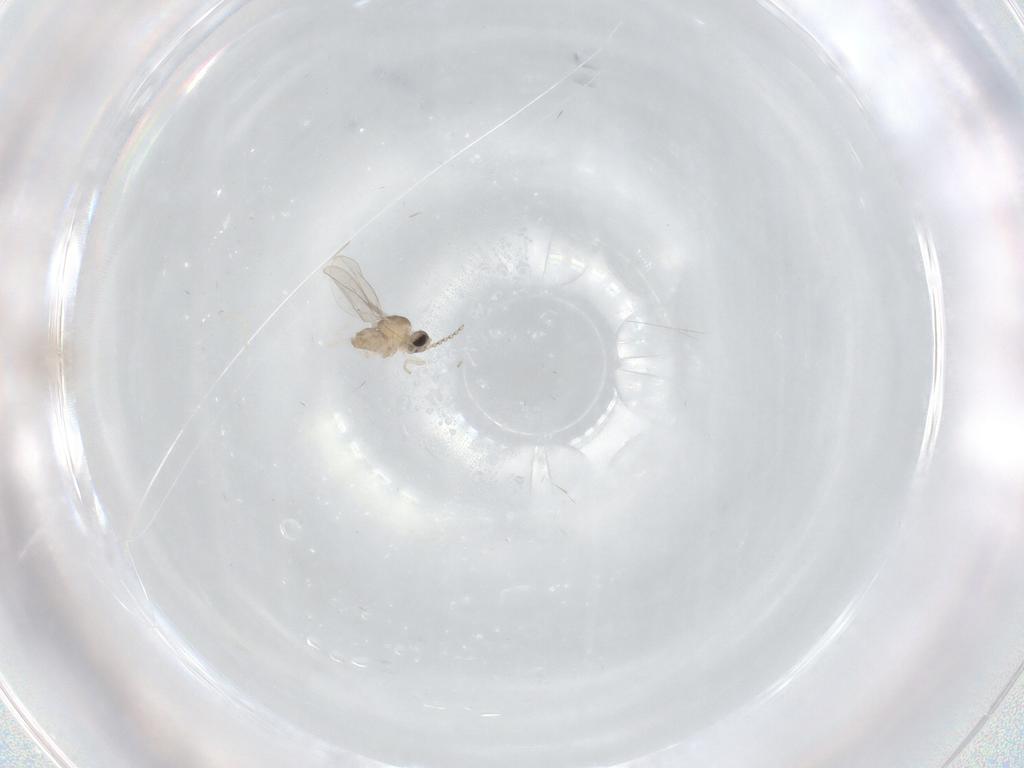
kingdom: Animalia
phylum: Arthropoda
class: Insecta
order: Diptera
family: Cecidomyiidae
